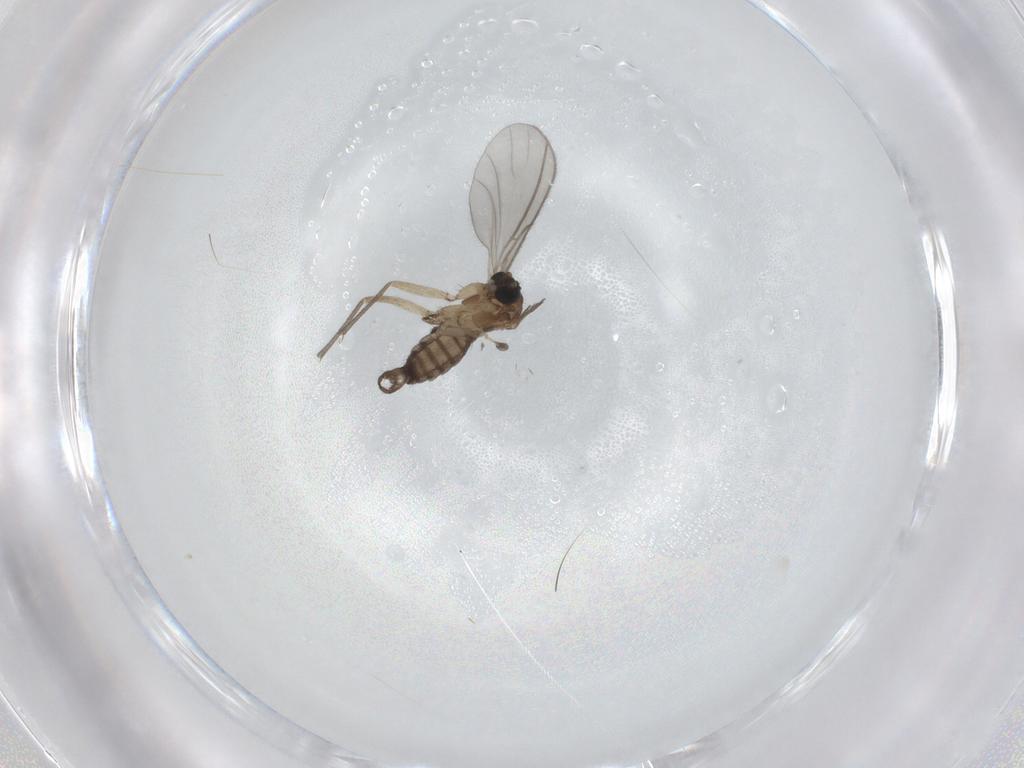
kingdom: Animalia
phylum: Arthropoda
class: Insecta
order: Diptera
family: Sciaridae
